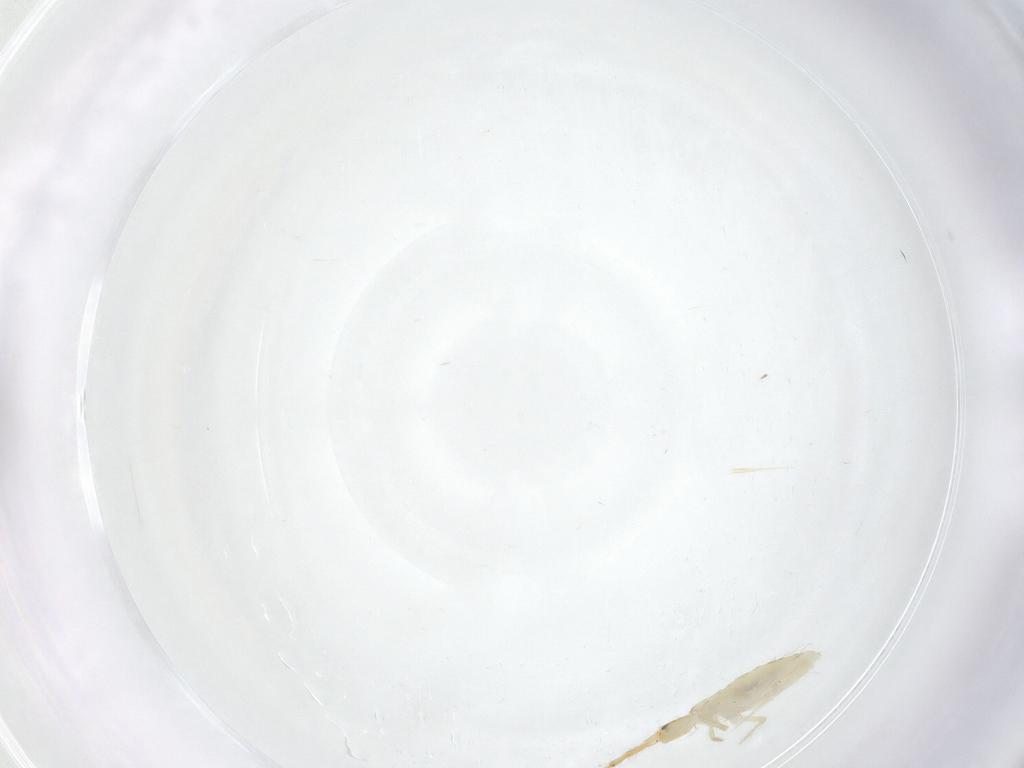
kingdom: Animalia
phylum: Arthropoda
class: Collembola
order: Entomobryomorpha
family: Entomobryidae
